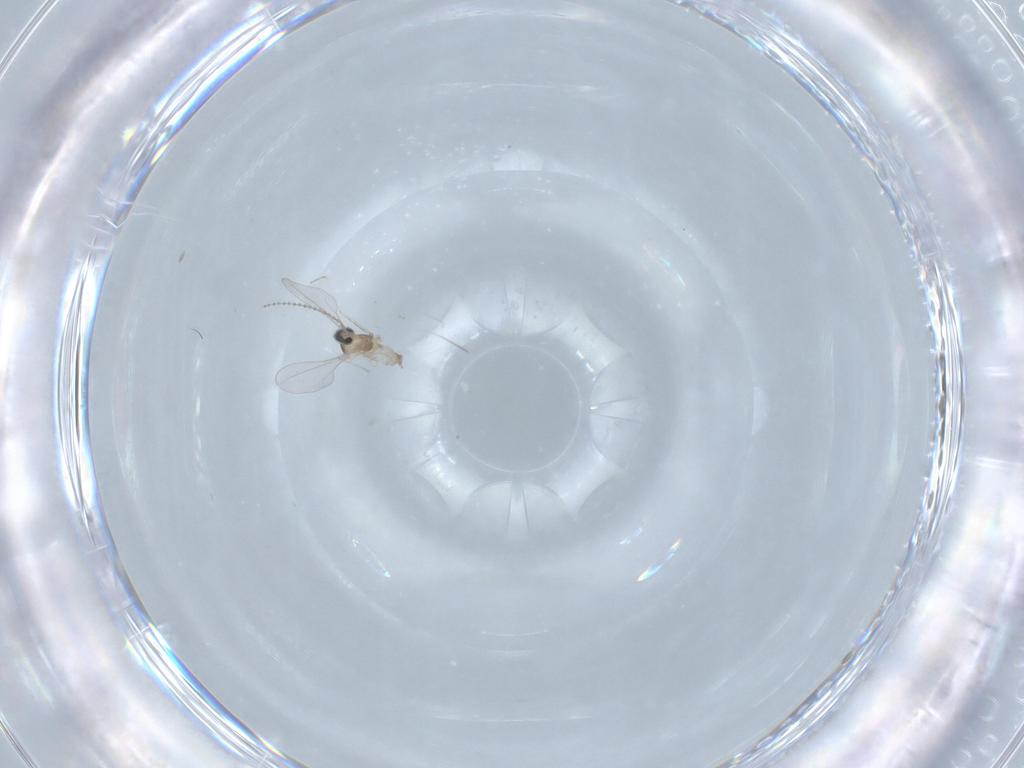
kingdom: Animalia
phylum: Arthropoda
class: Insecta
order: Diptera
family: Cecidomyiidae
